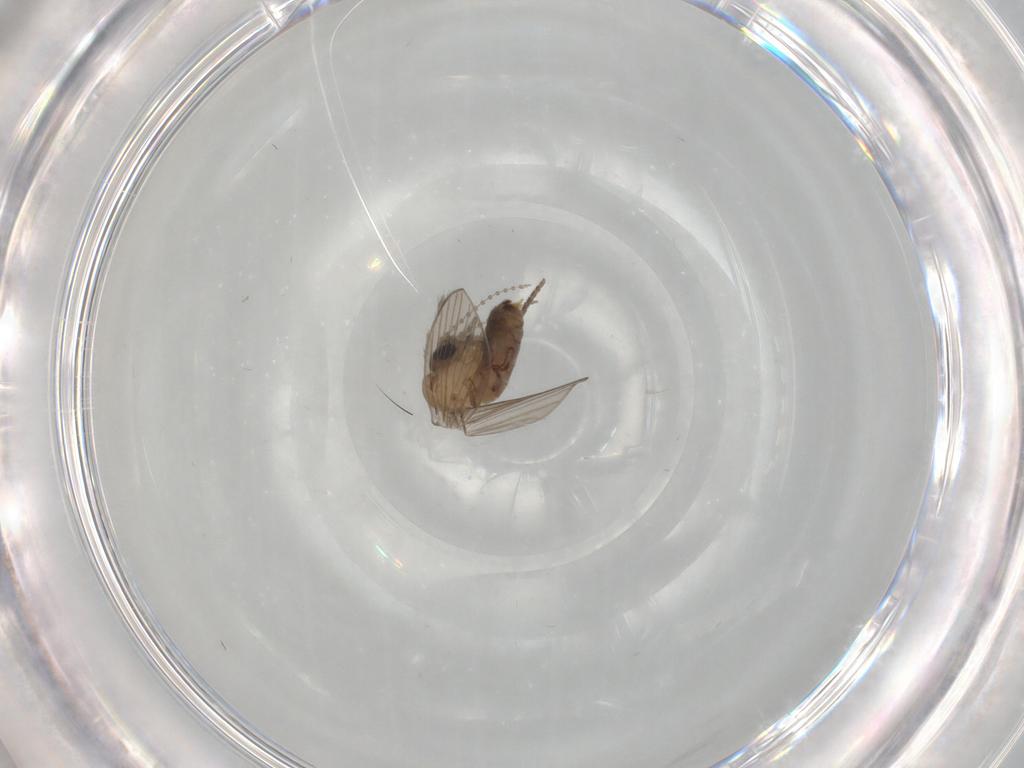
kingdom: Animalia
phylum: Arthropoda
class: Insecta
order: Diptera
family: Psychodidae
